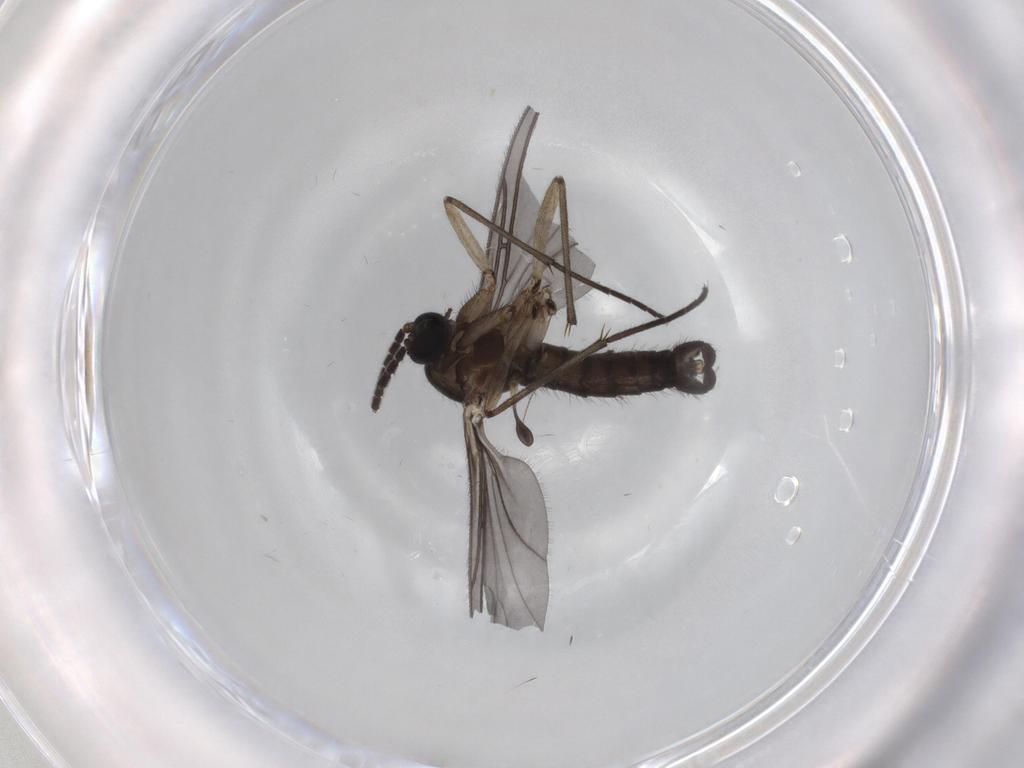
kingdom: Animalia
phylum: Arthropoda
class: Insecta
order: Diptera
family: Sciaridae
